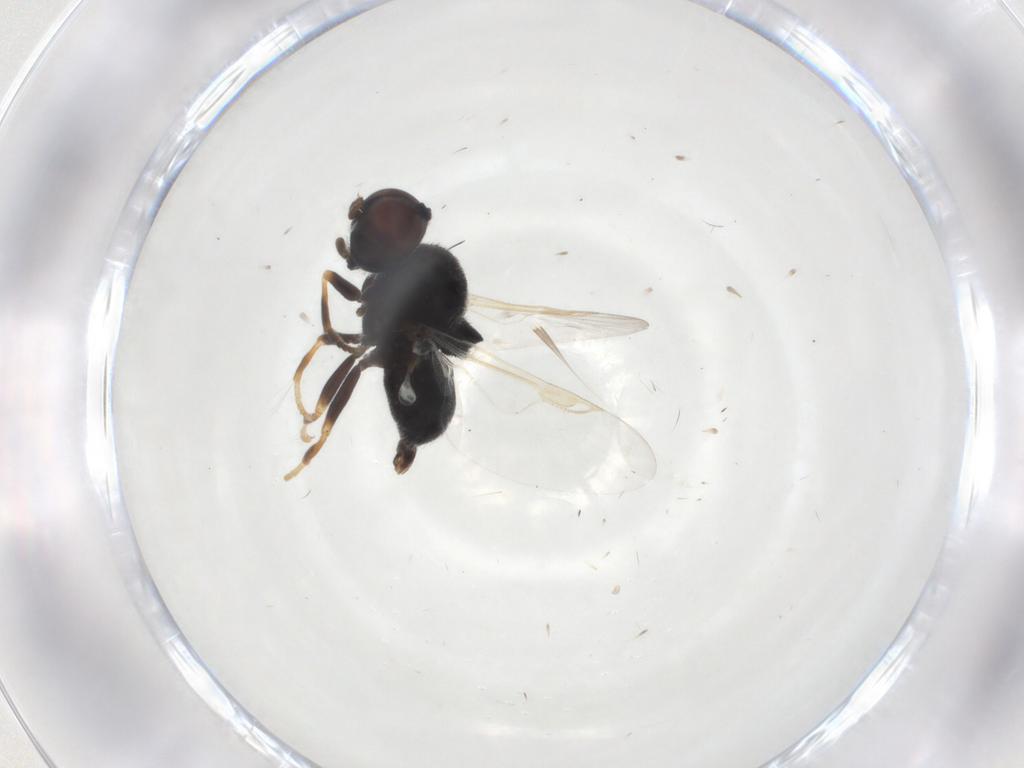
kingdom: Animalia
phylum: Arthropoda
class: Insecta
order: Diptera
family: Stratiomyidae
